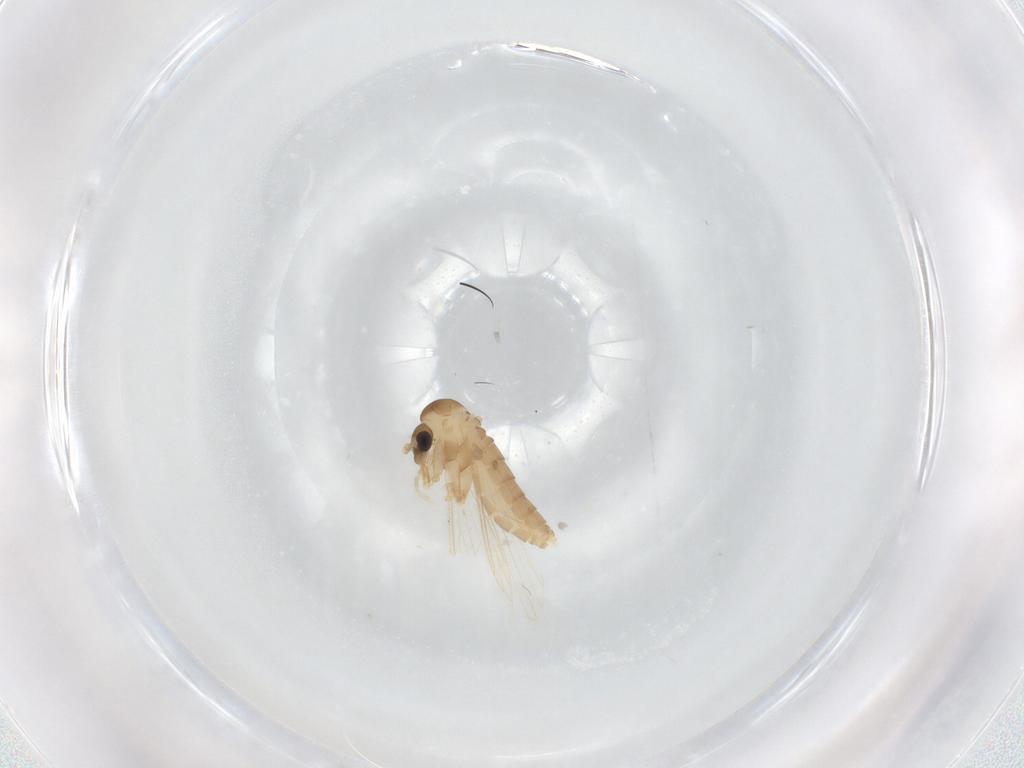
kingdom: Animalia
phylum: Arthropoda
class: Insecta
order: Diptera
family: Psychodidae
